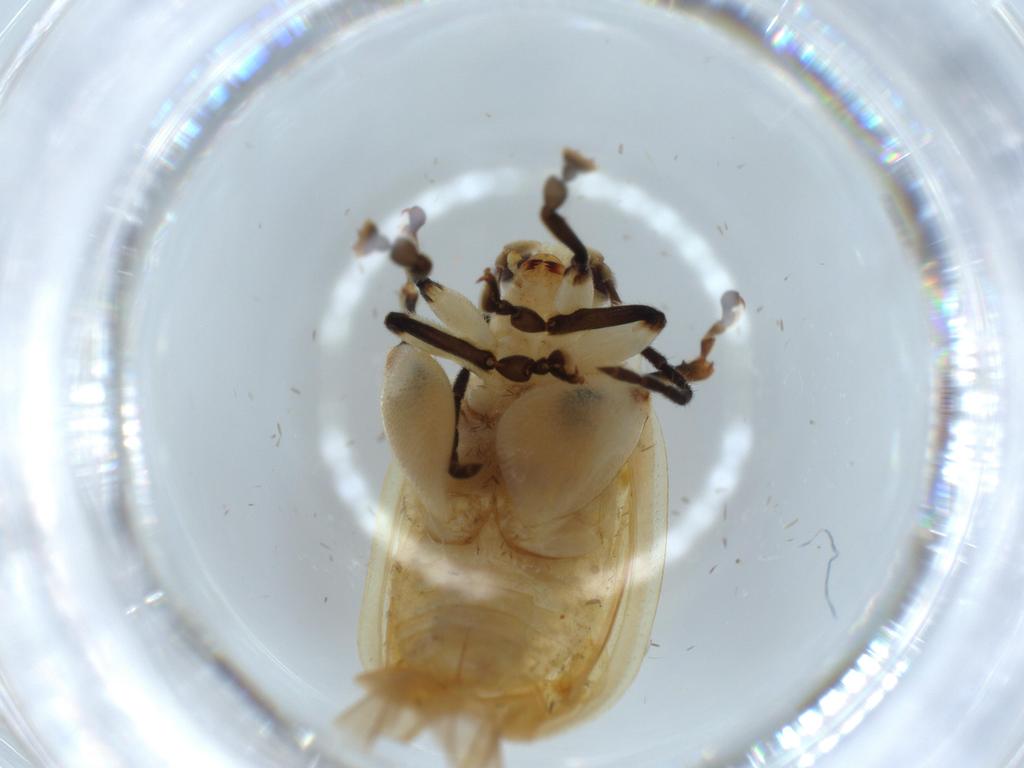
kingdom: Animalia
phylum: Arthropoda
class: Insecta
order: Coleoptera
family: Chrysomelidae
